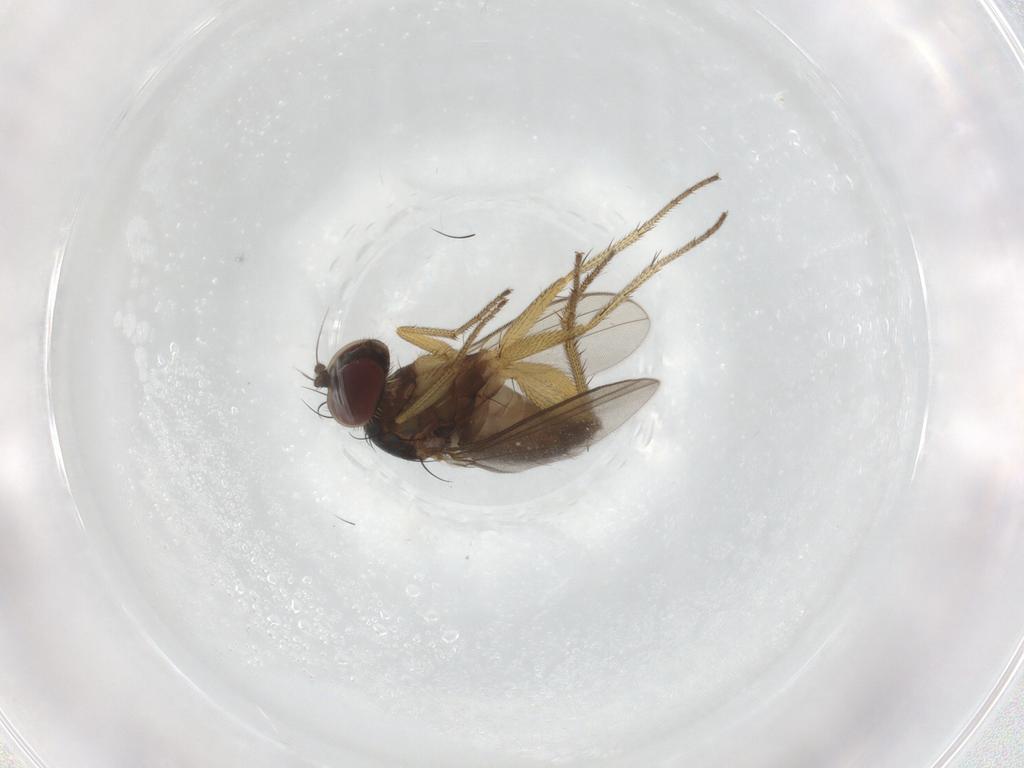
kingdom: Animalia
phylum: Arthropoda
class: Insecta
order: Diptera
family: Dolichopodidae
